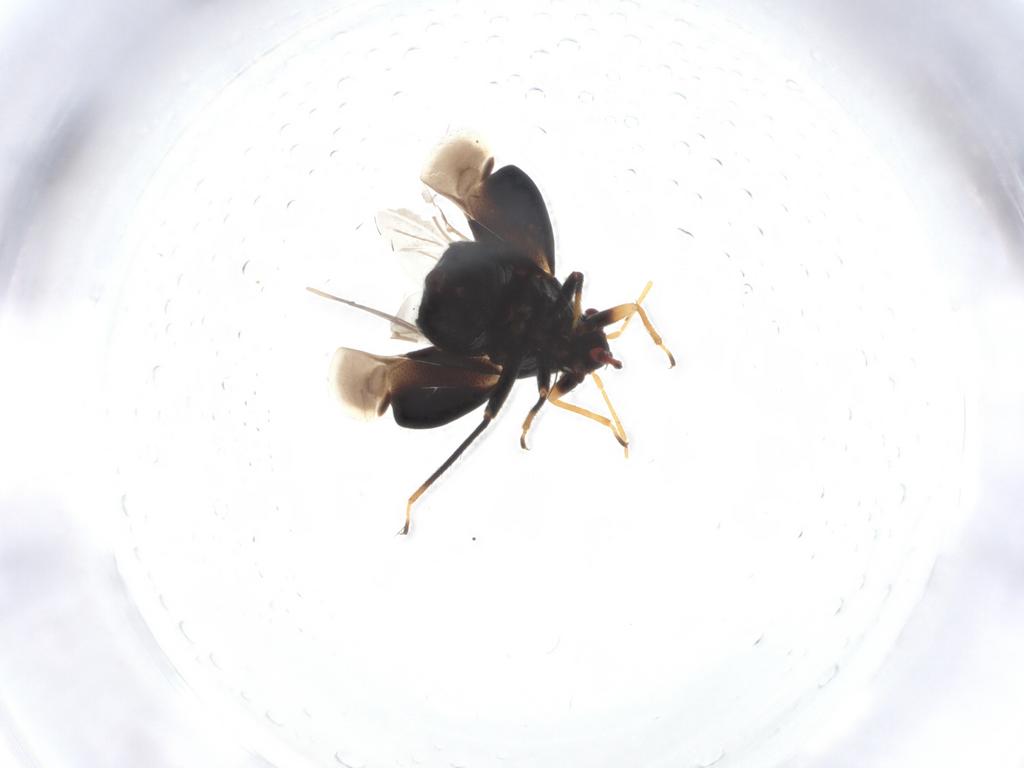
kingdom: Animalia
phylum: Arthropoda
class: Insecta
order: Hemiptera
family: Miridae
